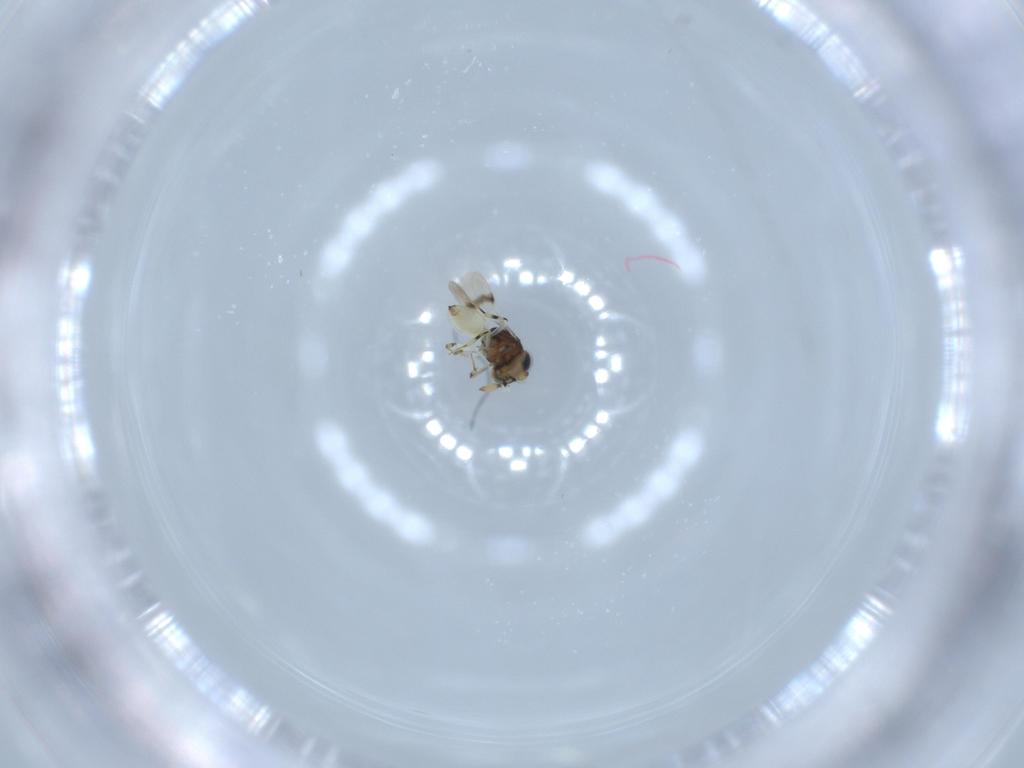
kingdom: Animalia
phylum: Arthropoda
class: Insecta
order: Hymenoptera
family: Scelionidae
